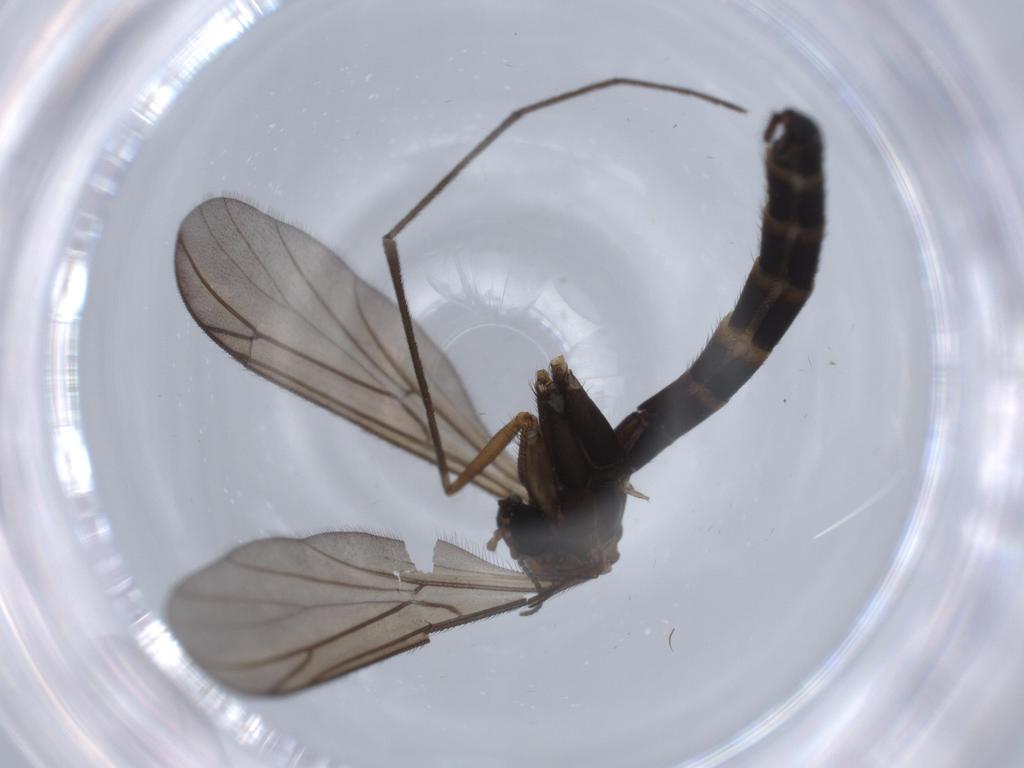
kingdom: Animalia
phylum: Arthropoda
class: Insecta
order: Diptera
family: Milichiidae
